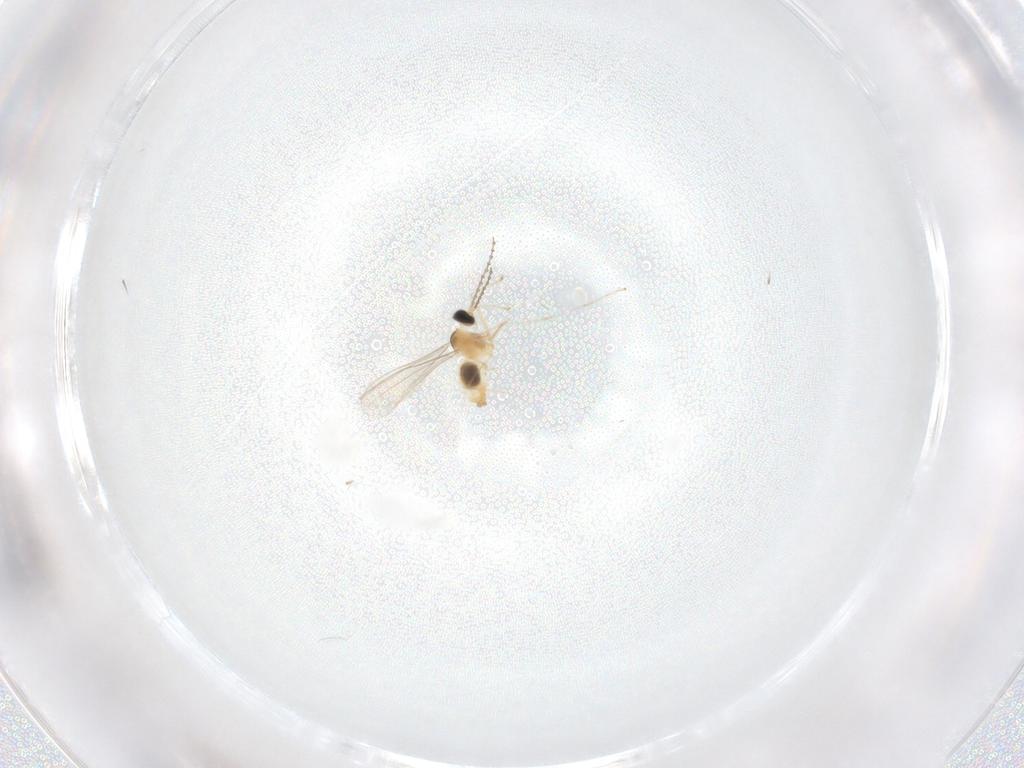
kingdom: Animalia
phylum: Arthropoda
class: Insecta
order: Diptera
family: Cecidomyiidae
